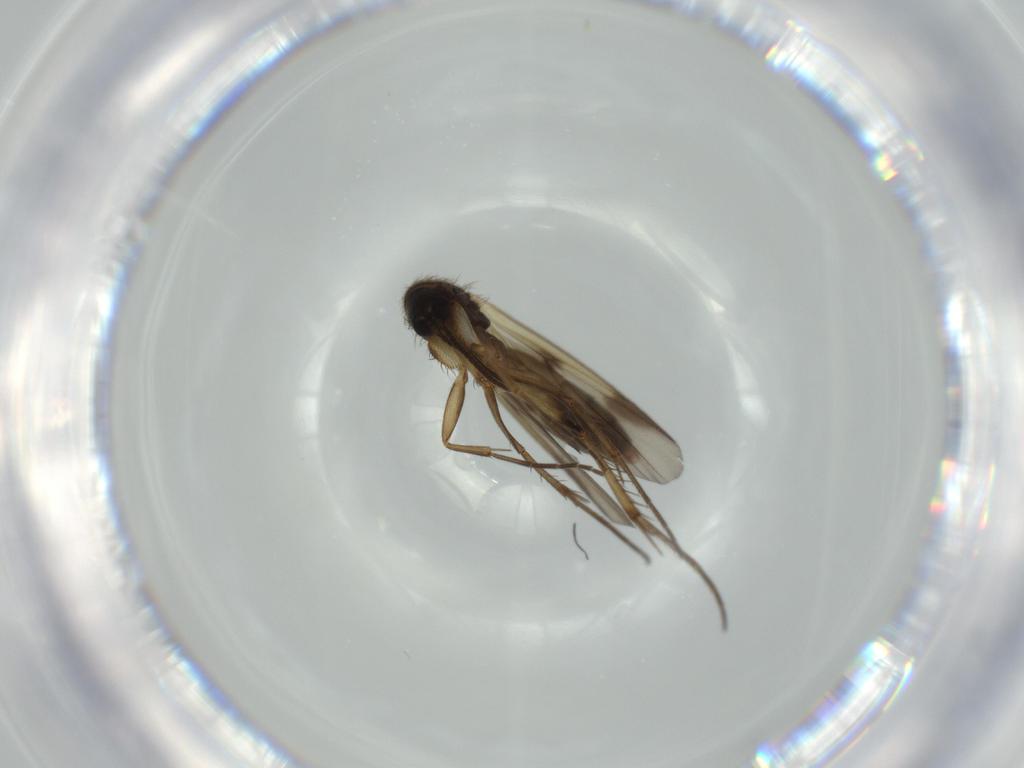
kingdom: Animalia
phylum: Arthropoda
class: Insecta
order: Diptera
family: Mycetophilidae
